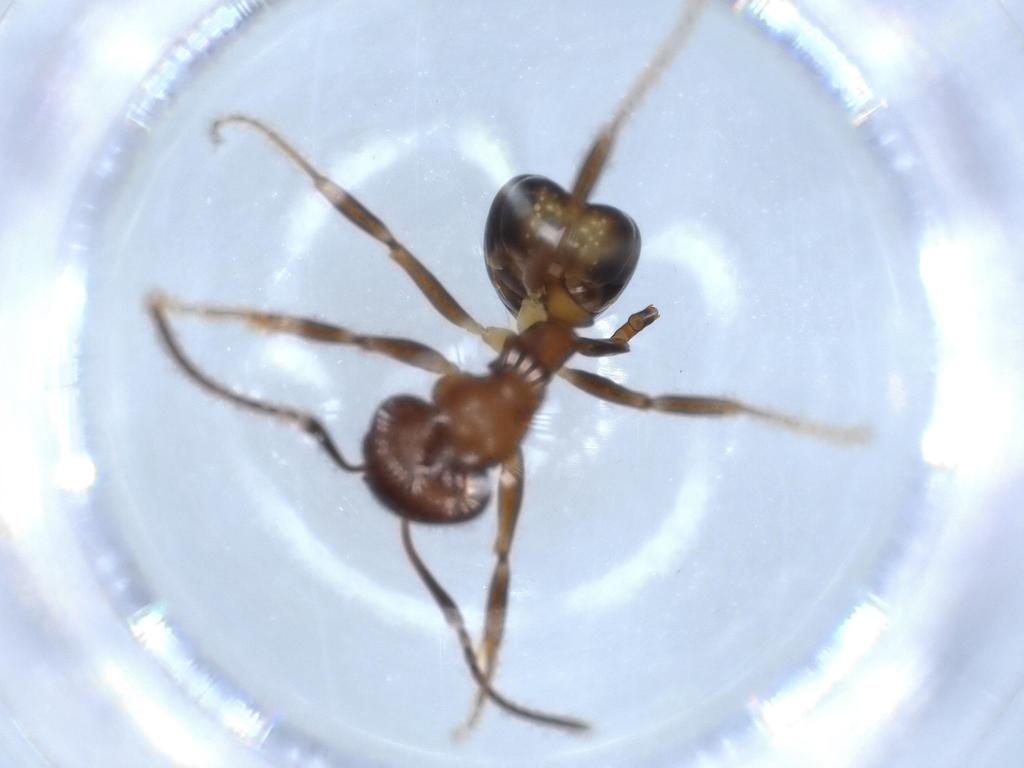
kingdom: Animalia
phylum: Arthropoda
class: Insecta
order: Hymenoptera
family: Formicidae
